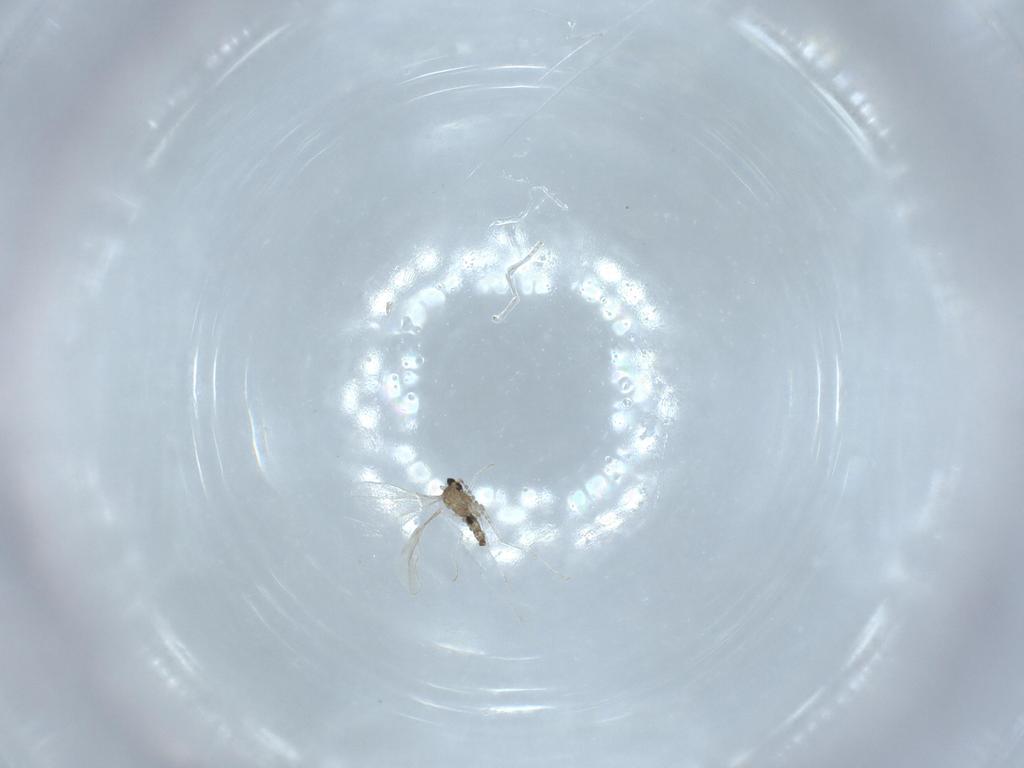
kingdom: Animalia
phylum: Arthropoda
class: Insecta
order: Diptera
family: Cecidomyiidae
